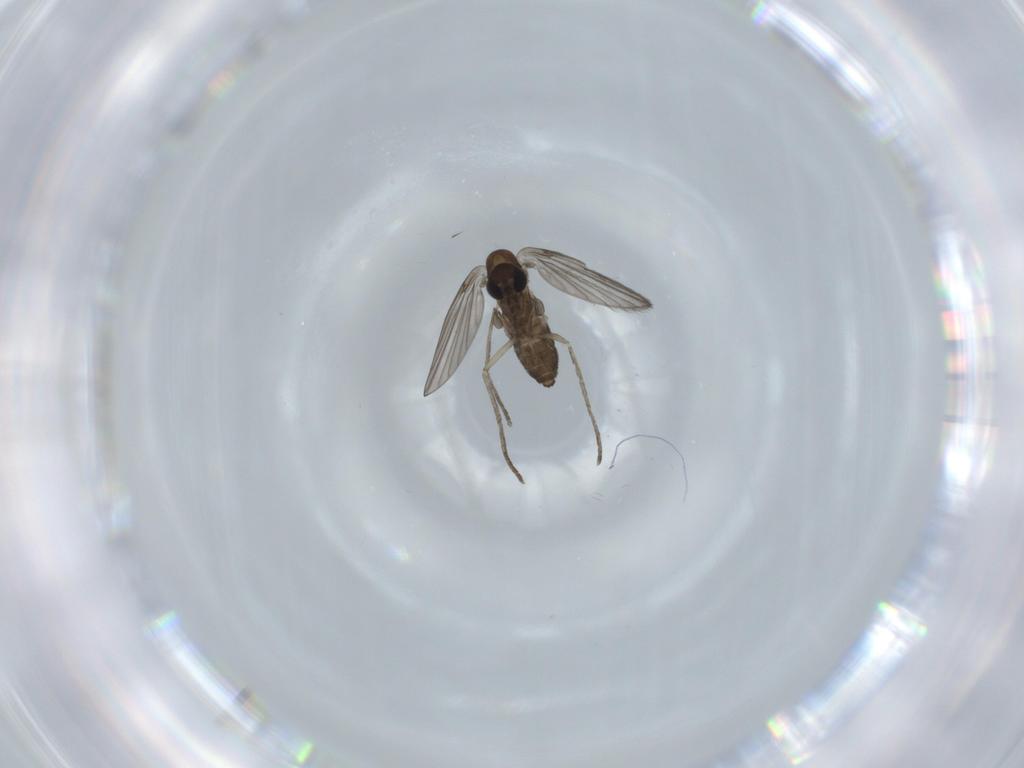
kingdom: Animalia
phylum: Arthropoda
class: Insecta
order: Diptera
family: Psychodidae
